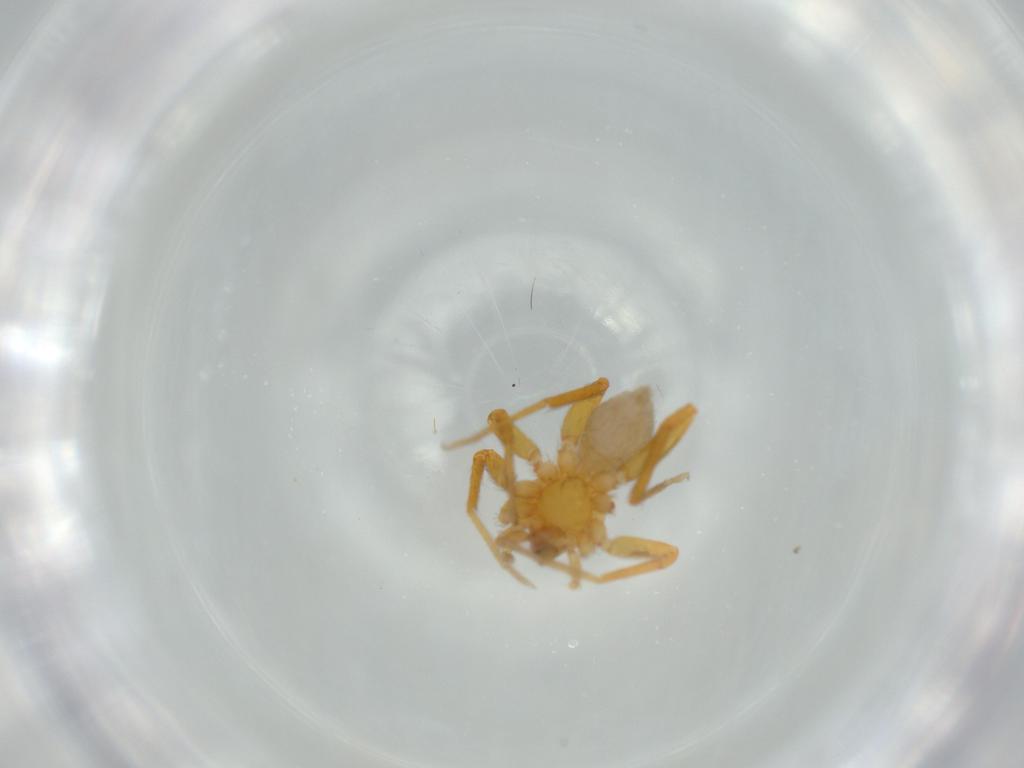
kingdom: Animalia
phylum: Arthropoda
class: Arachnida
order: Araneae
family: Oonopidae
